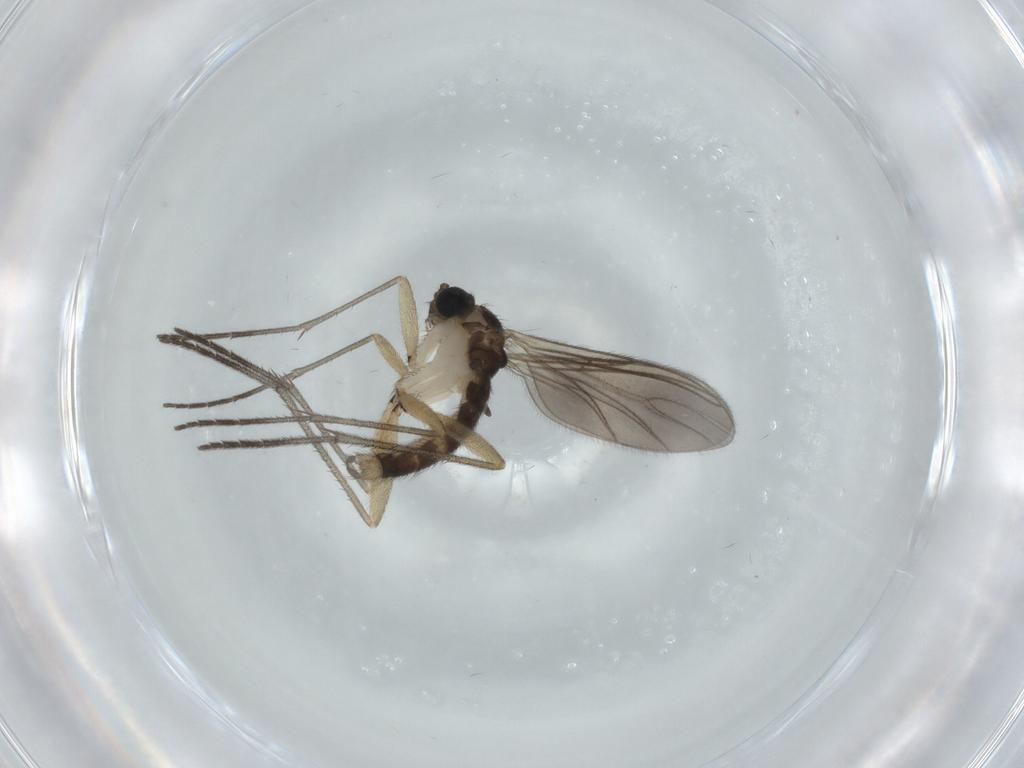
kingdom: Animalia
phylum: Arthropoda
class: Insecta
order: Diptera
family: Sciaridae
